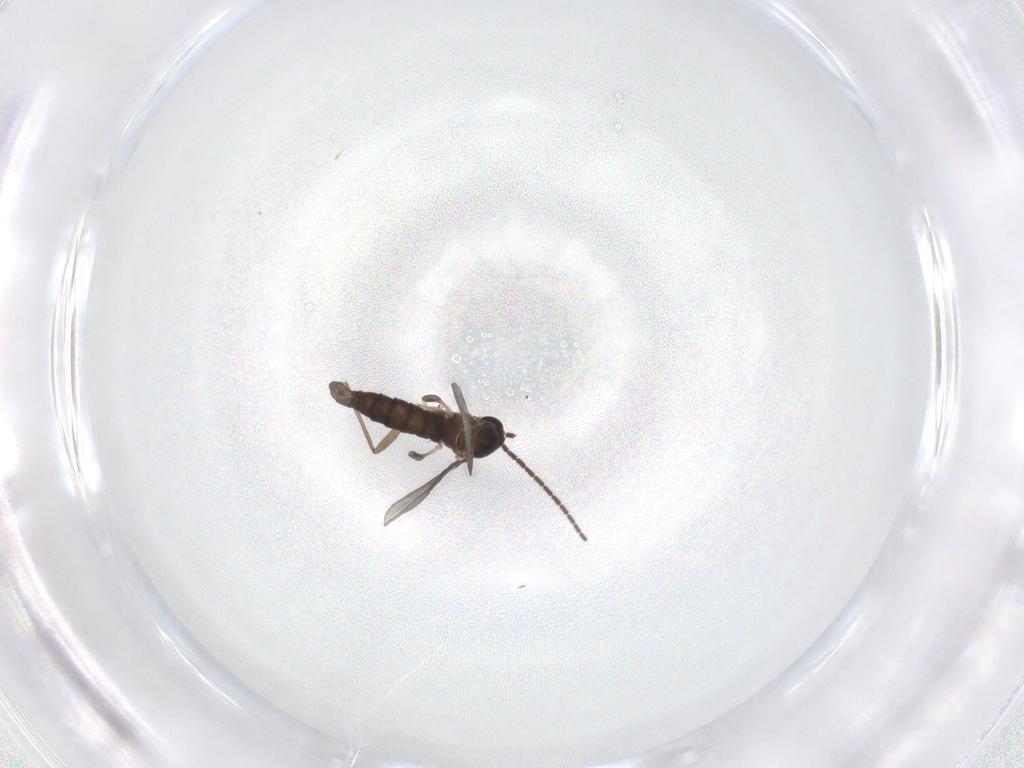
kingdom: Animalia
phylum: Arthropoda
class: Insecta
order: Diptera
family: Sciaridae
